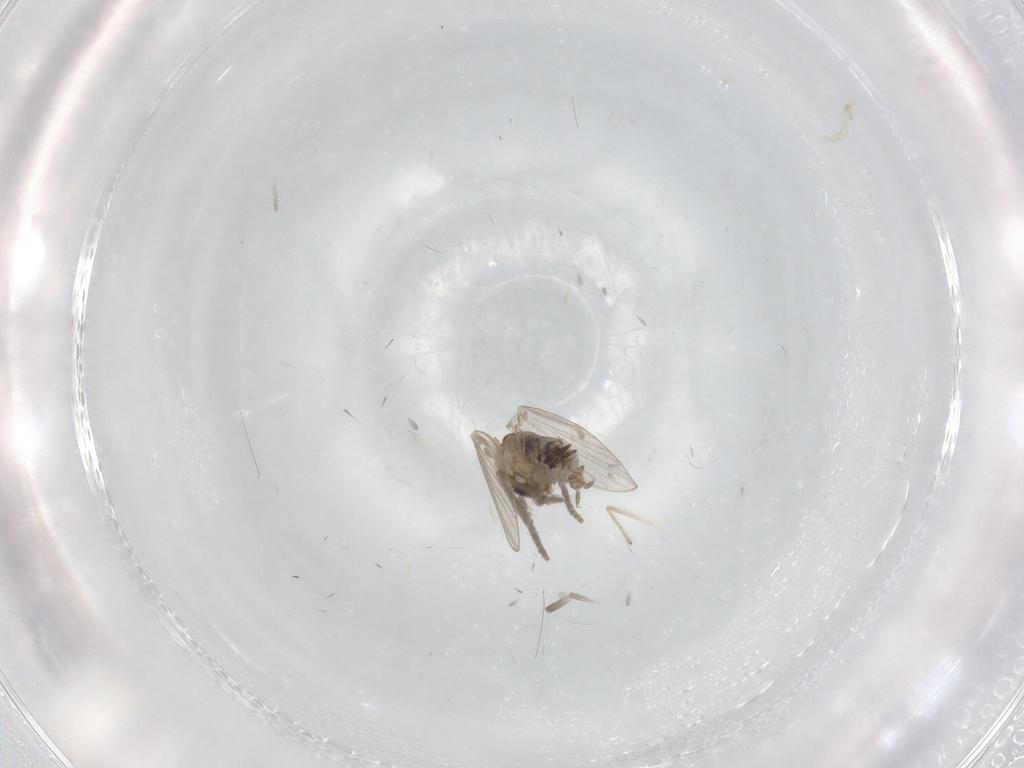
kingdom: Animalia
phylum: Arthropoda
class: Insecta
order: Diptera
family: Psychodidae
